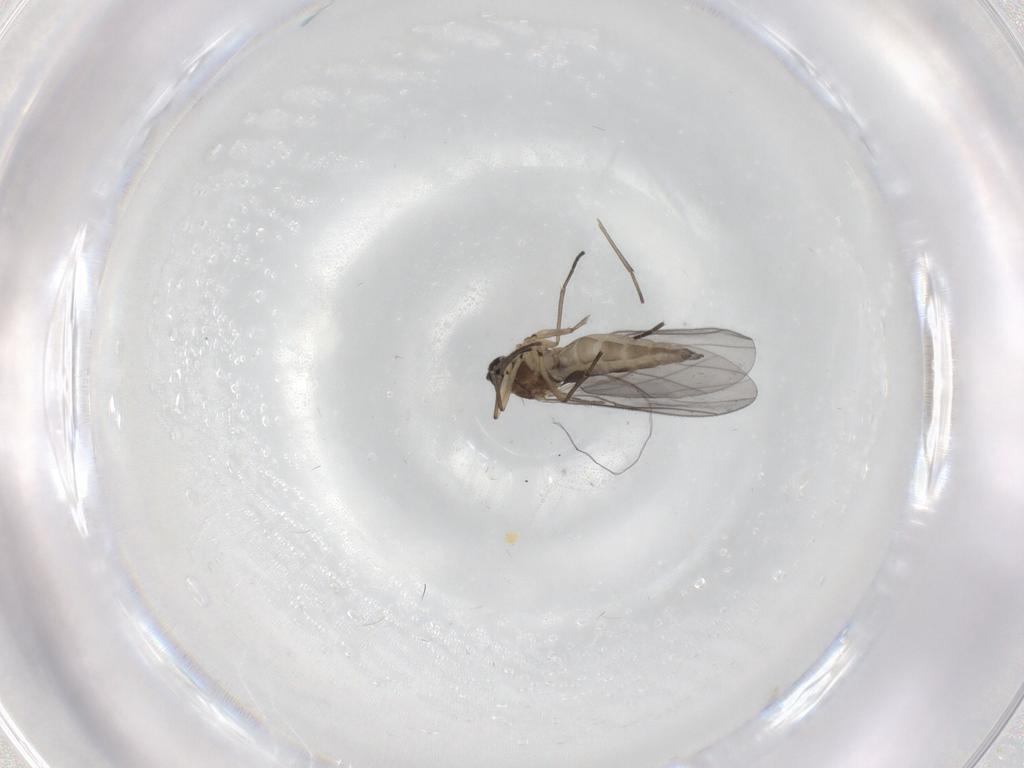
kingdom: Animalia
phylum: Arthropoda
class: Insecta
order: Diptera
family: Sciaridae
